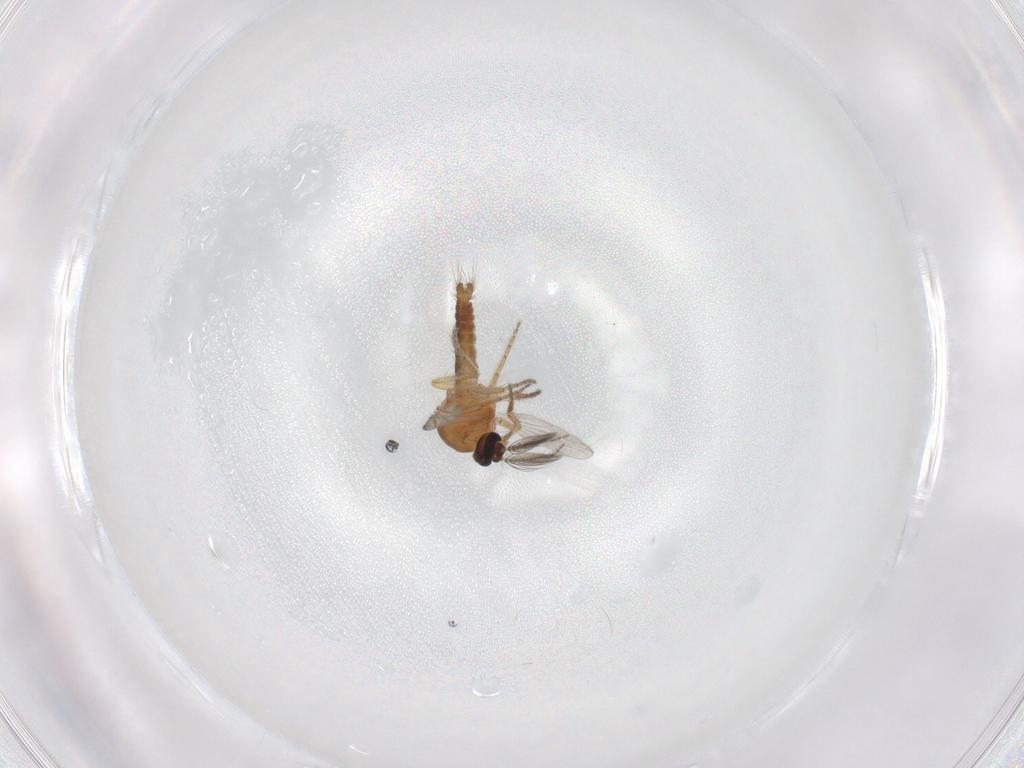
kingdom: Animalia
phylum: Arthropoda
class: Insecta
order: Diptera
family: Ceratopogonidae
